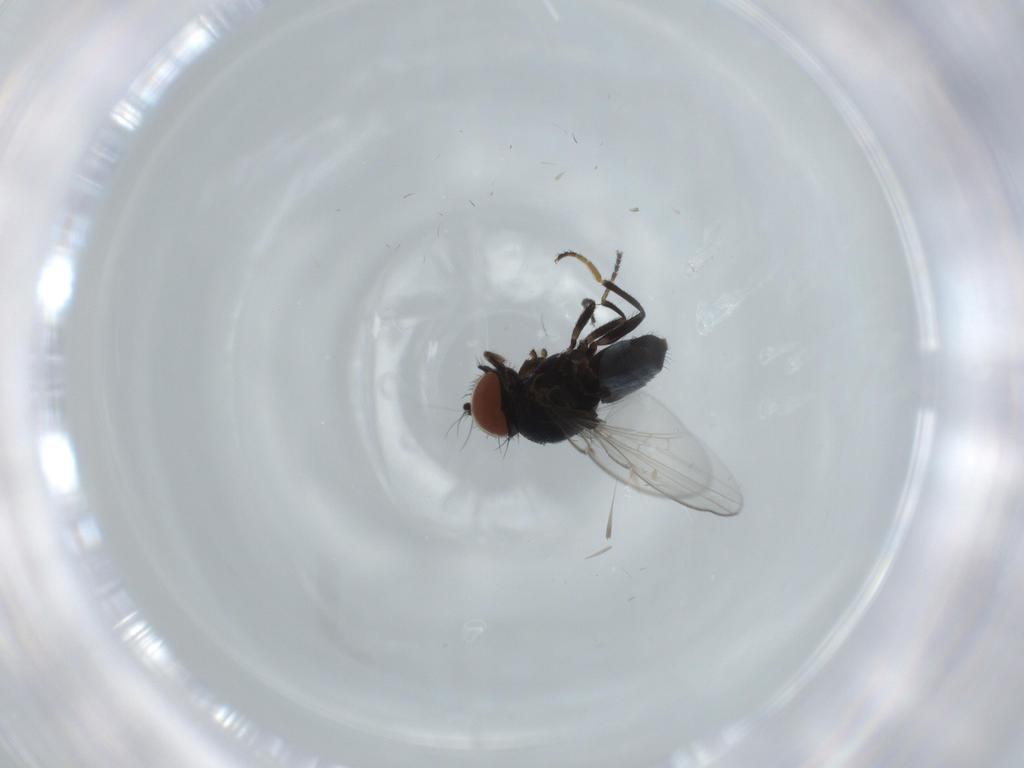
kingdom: Animalia
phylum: Arthropoda
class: Insecta
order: Diptera
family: Milichiidae
